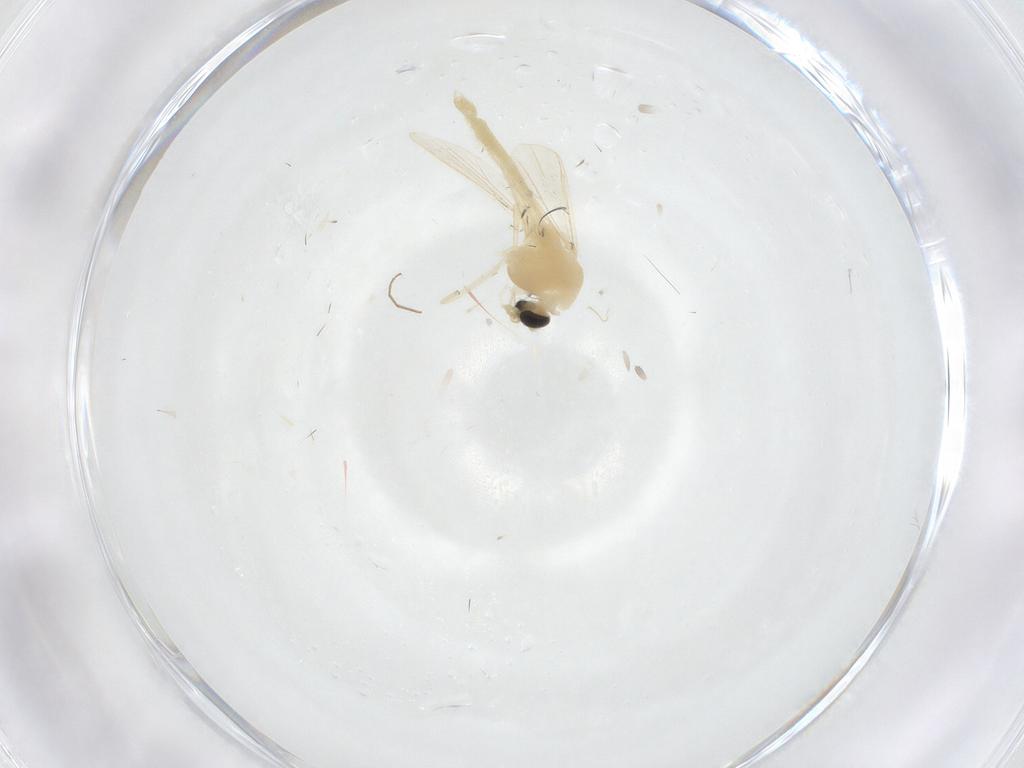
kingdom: Animalia
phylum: Arthropoda
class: Insecta
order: Diptera
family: Chironomidae
